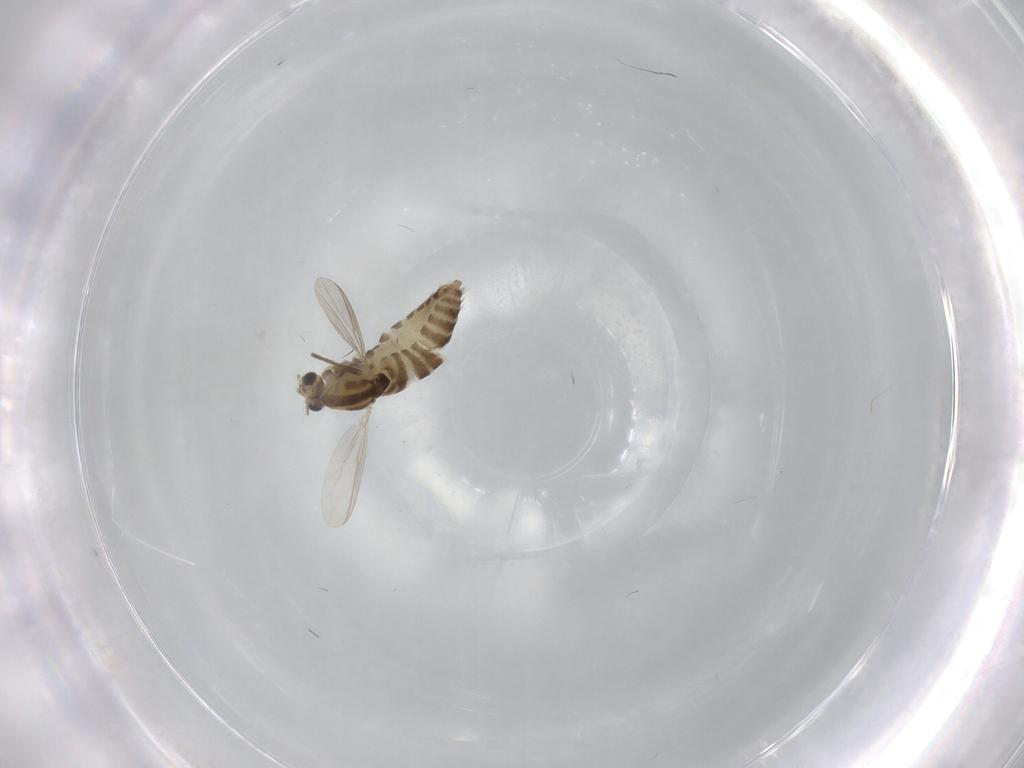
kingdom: Animalia
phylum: Arthropoda
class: Insecta
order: Diptera
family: Chironomidae
